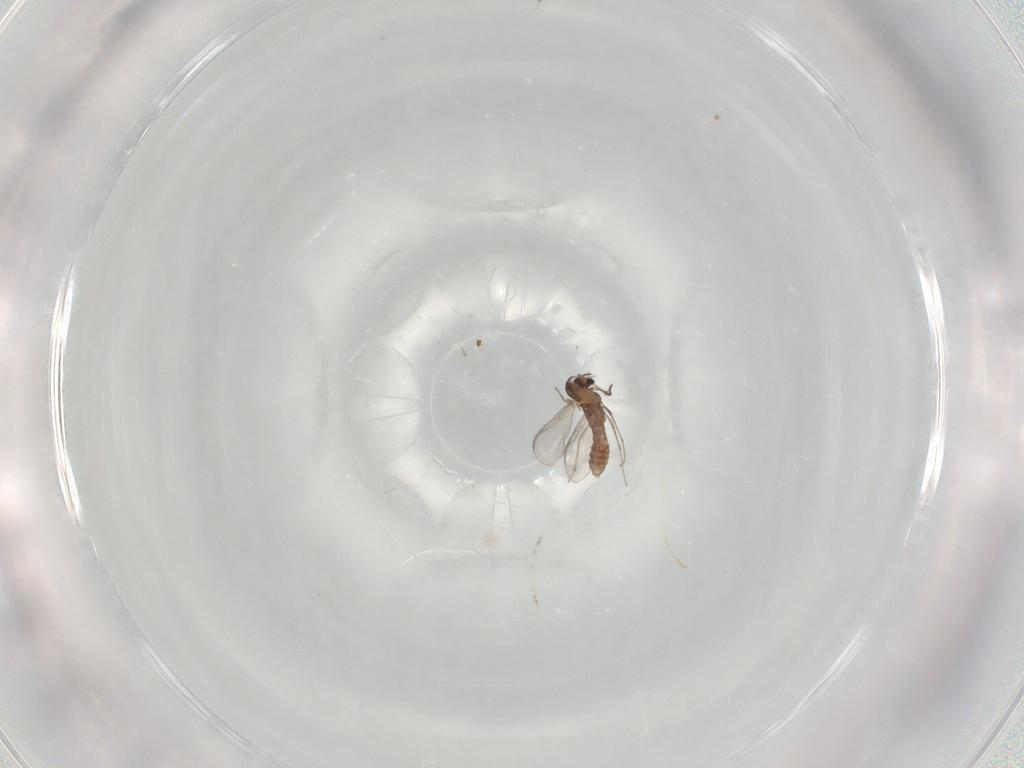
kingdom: Animalia
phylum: Arthropoda
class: Insecta
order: Diptera
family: Chironomidae
